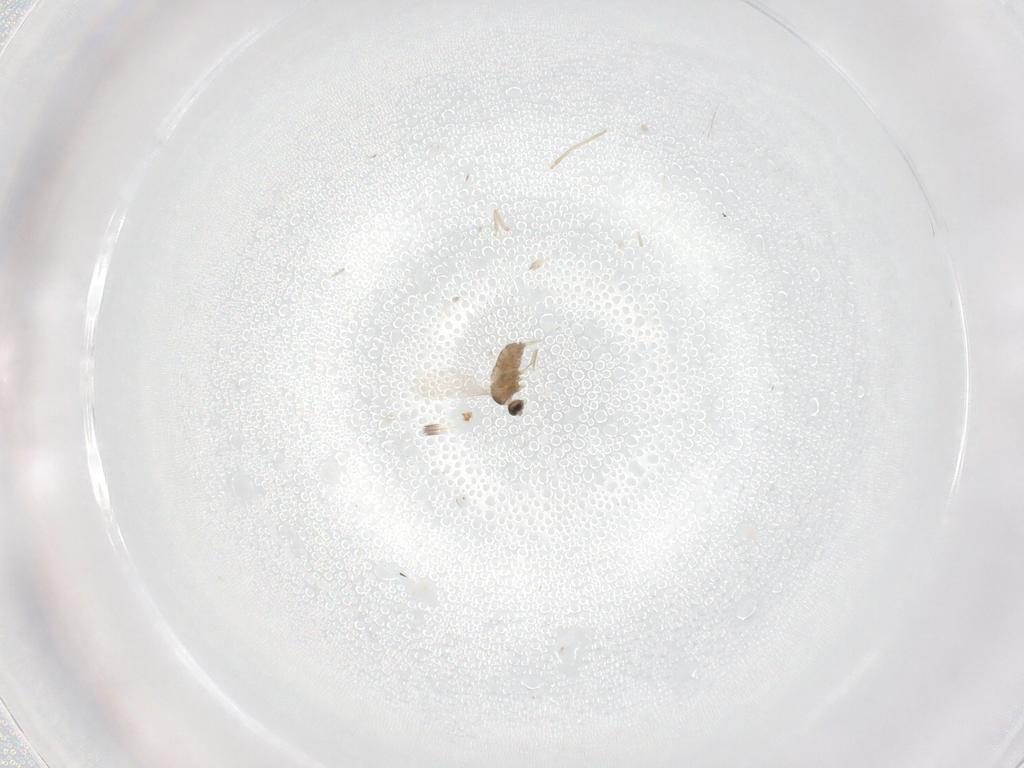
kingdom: Animalia
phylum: Arthropoda
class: Insecta
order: Diptera
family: Cecidomyiidae
